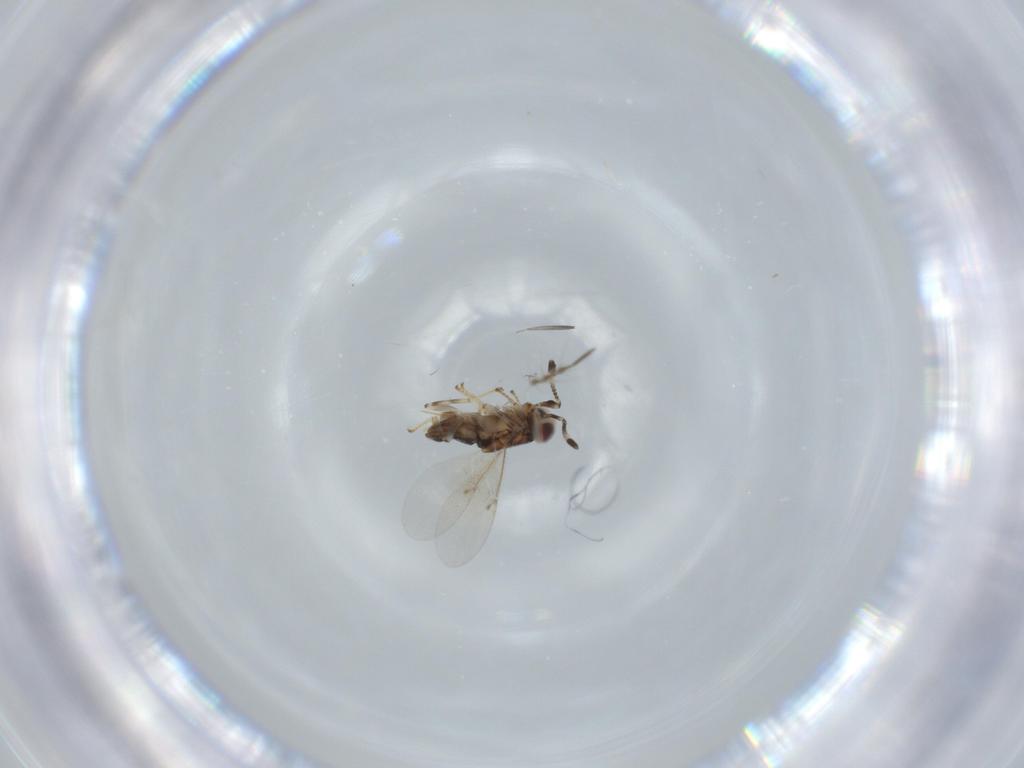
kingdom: Animalia
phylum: Arthropoda
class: Insecta
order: Hymenoptera
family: Encyrtidae
